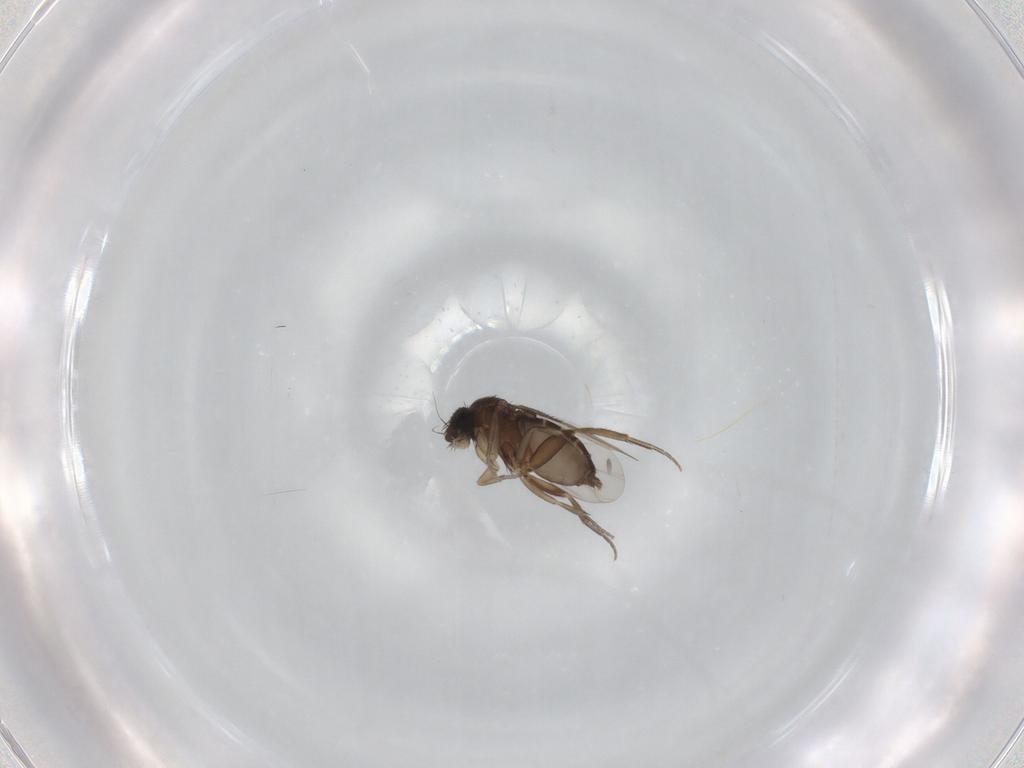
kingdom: Animalia
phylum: Arthropoda
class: Insecta
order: Diptera
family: Phoridae
